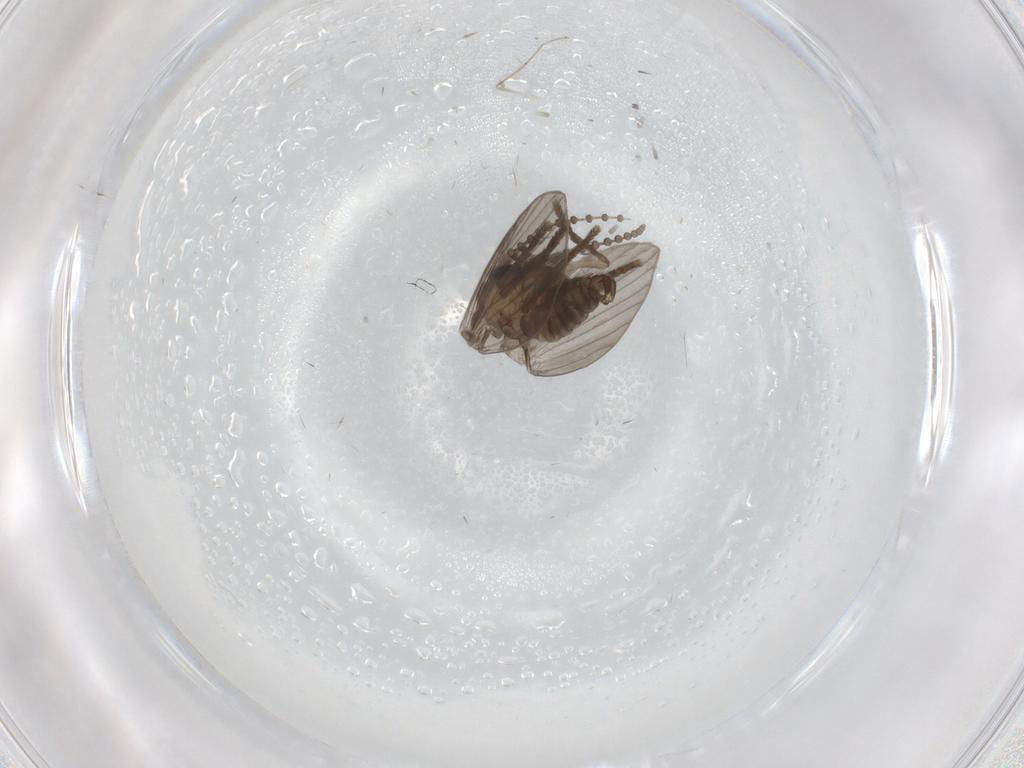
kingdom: Animalia
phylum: Arthropoda
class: Insecta
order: Diptera
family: Psychodidae
